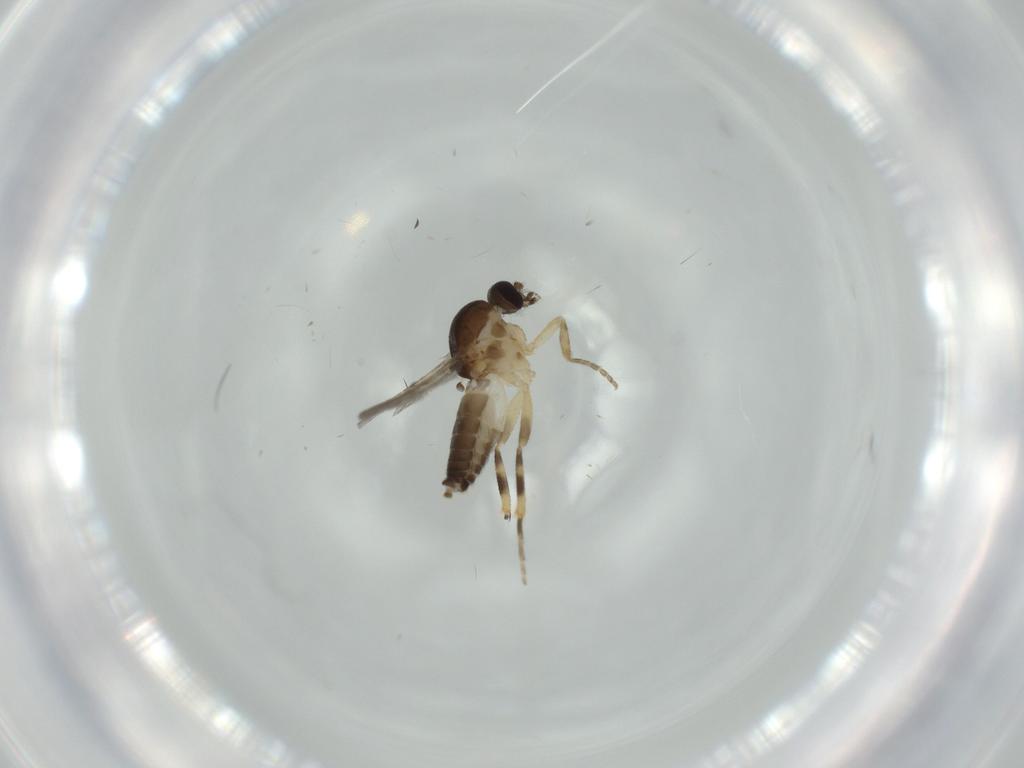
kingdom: Animalia
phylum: Arthropoda
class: Insecta
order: Diptera
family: Ceratopogonidae
